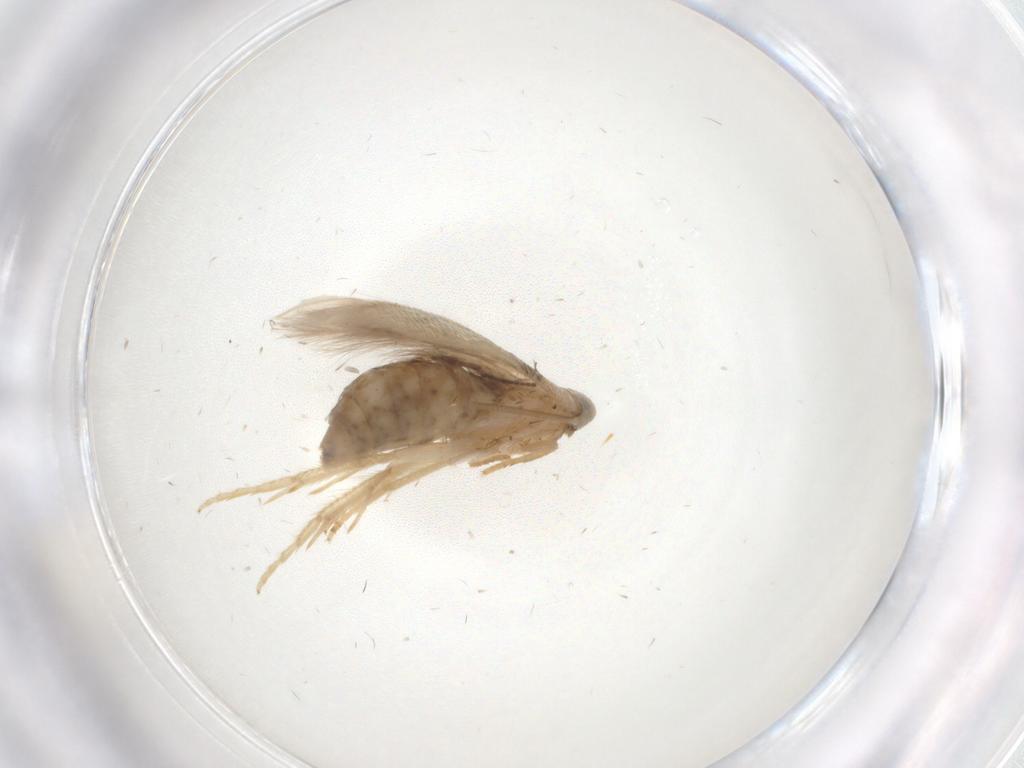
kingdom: Animalia
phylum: Arthropoda
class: Insecta
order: Lepidoptera
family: Opostegidae
